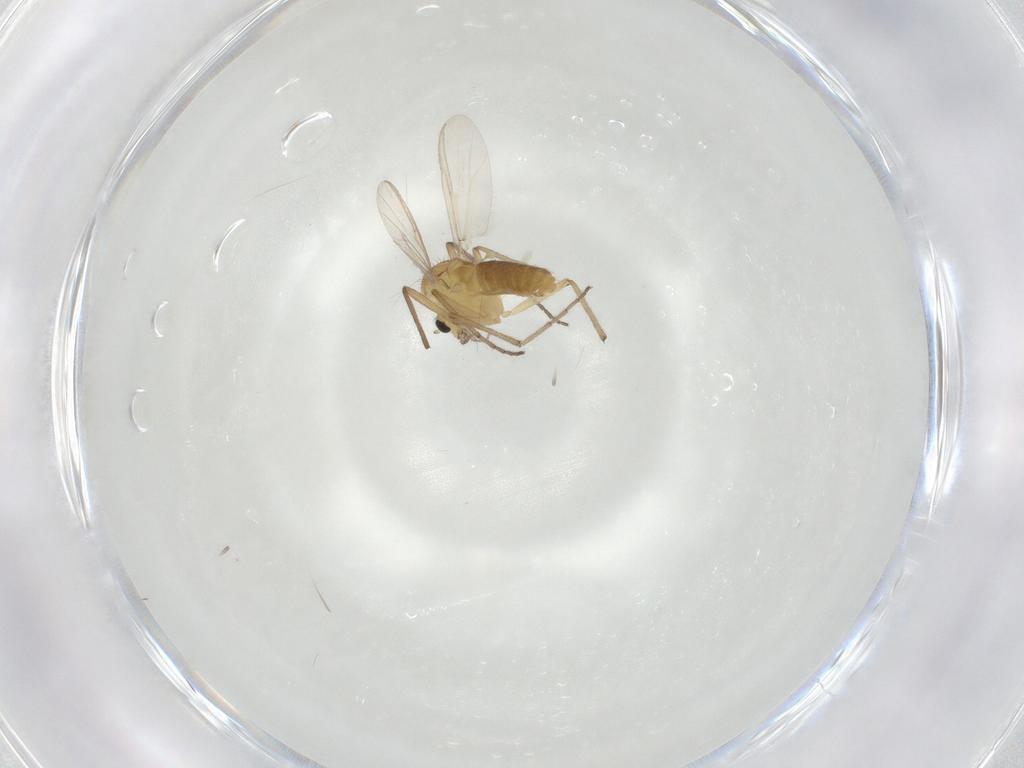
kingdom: Animalia
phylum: Arthropoda
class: Insecta
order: Diptera
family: Chironomidae
